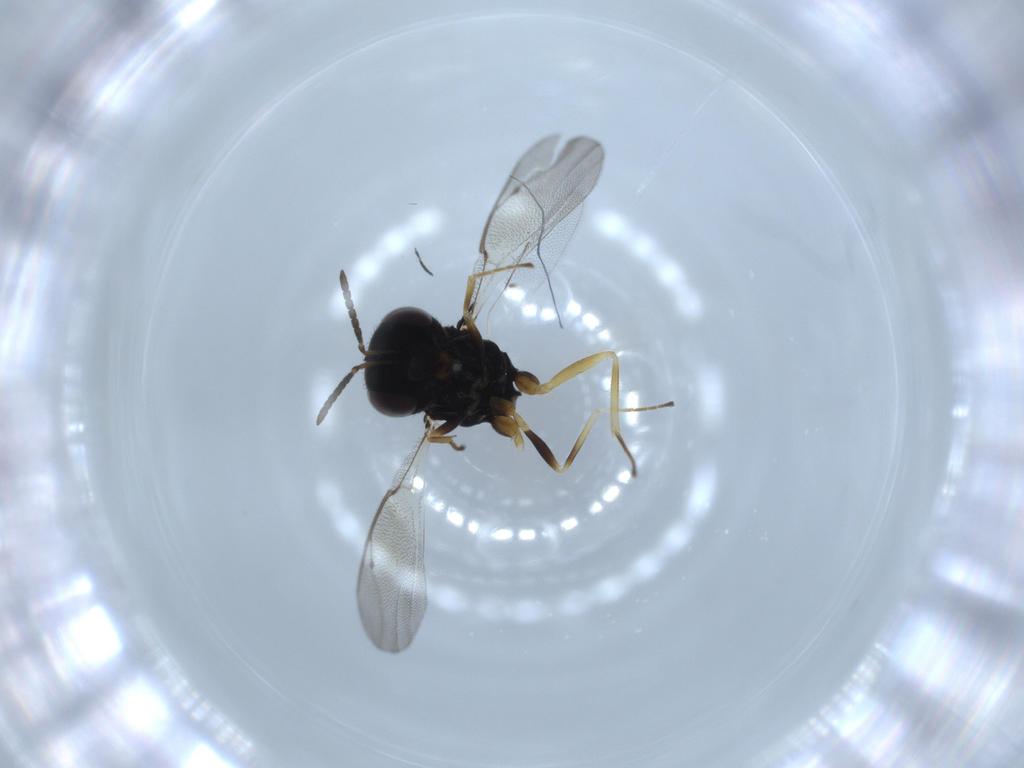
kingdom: Animalia
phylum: Arthropoda
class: Insecta
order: Hymenoptera
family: Pteromalidae
